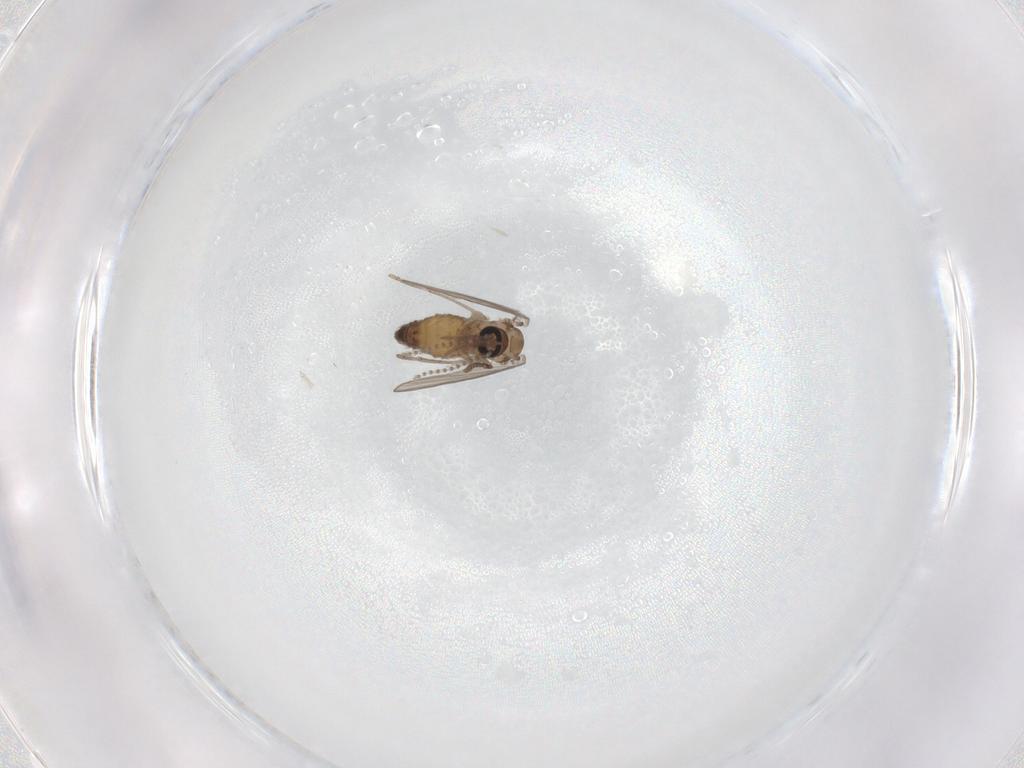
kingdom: Animalia
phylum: Arthropoda
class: Insecta
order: Diptera
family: Psychodidae
